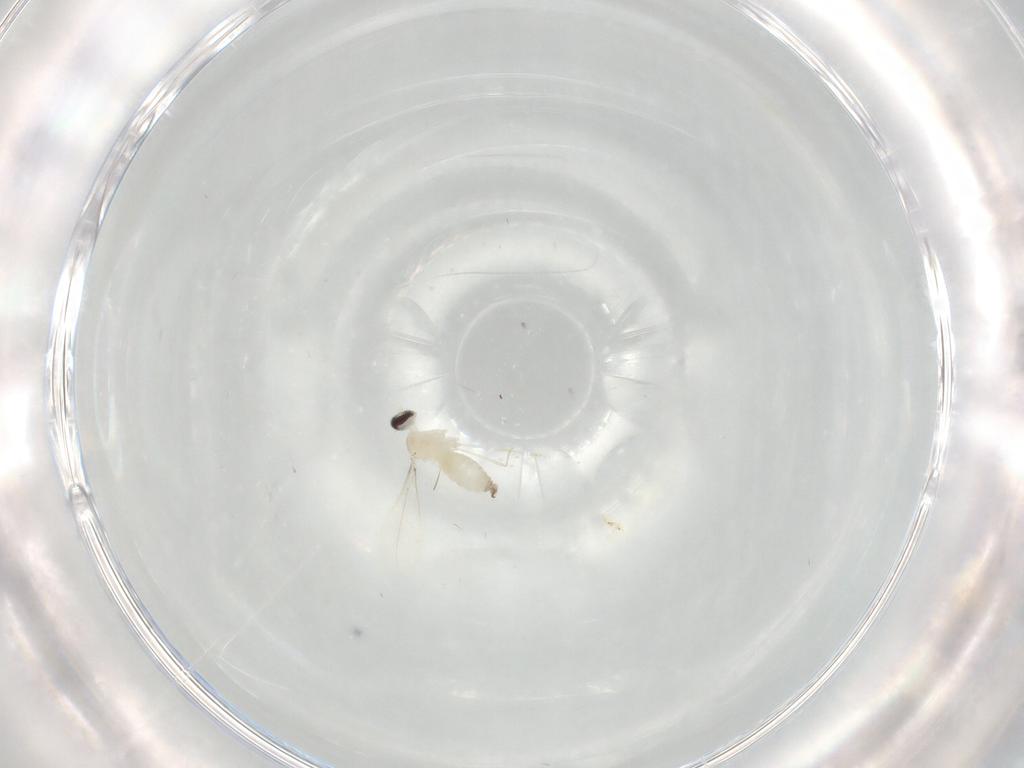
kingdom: Animalia
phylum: Arthropoda
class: Insecta
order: Diptera
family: Cecidomyiidae
